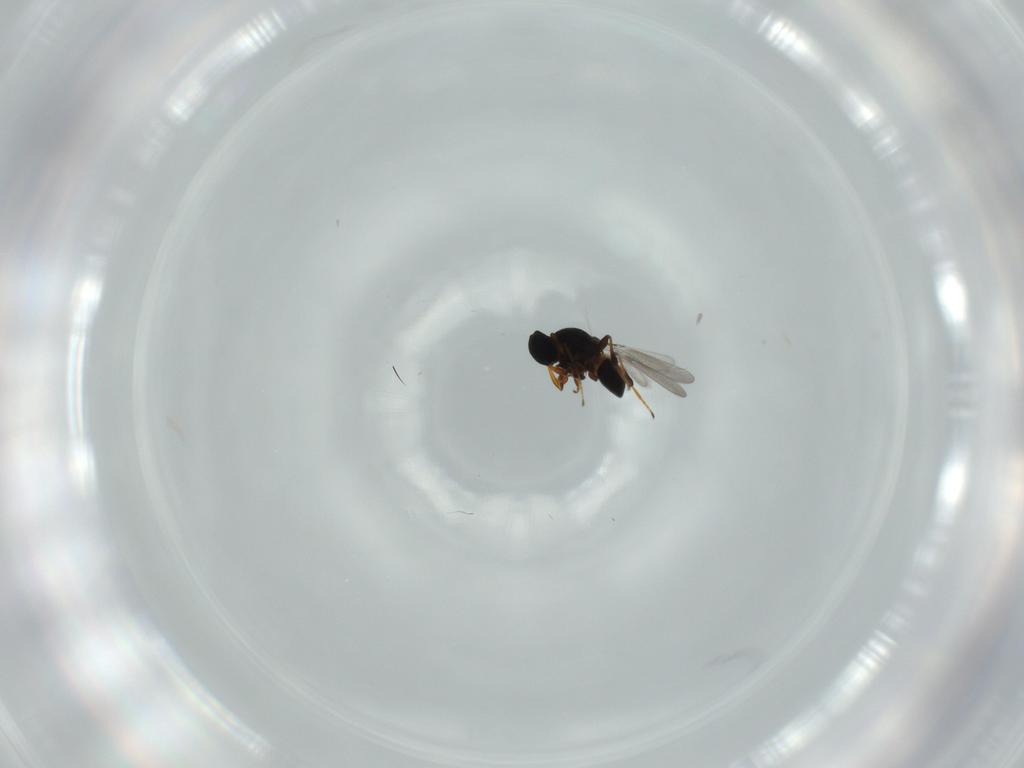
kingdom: Animalia
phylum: Arthropoda
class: Insecta
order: Hymenoptera
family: Platygastridae
